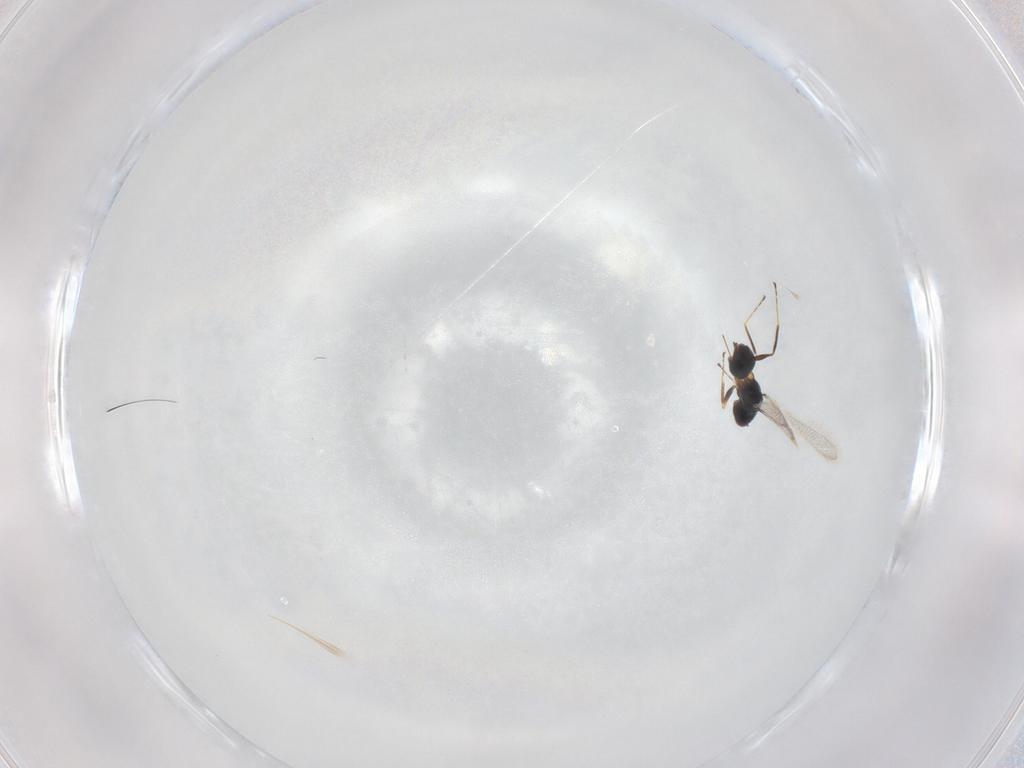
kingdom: Animalia
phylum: Arthropoda
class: Insecta
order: Hymenoptera
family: Mymaridae
